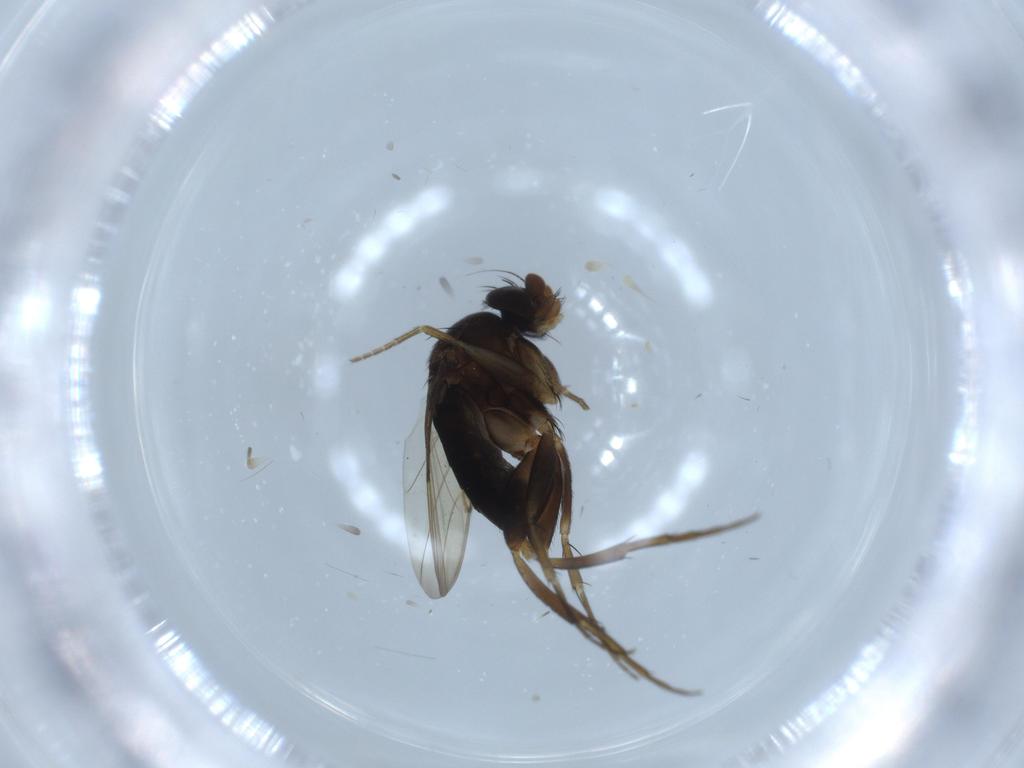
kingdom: Animalia
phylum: Arthropoda
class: Insecta
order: Diptera
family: Phoridae
